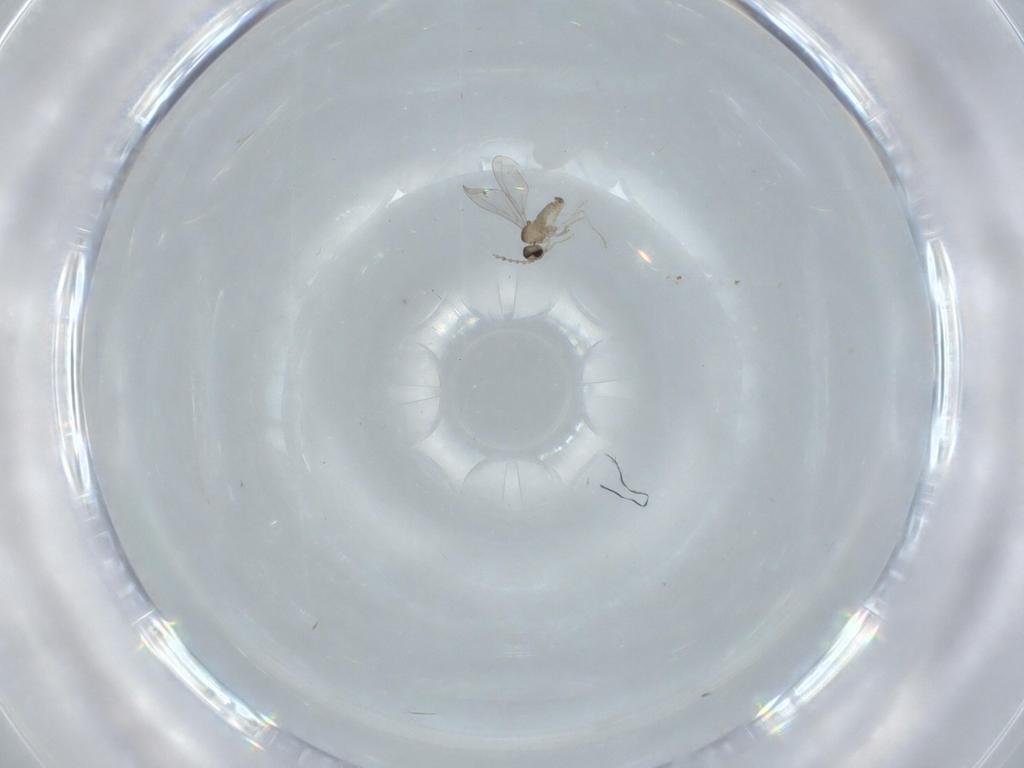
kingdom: Animalia
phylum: Arthropoda
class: Insecta
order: Diptera
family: Cecidomyiidae
